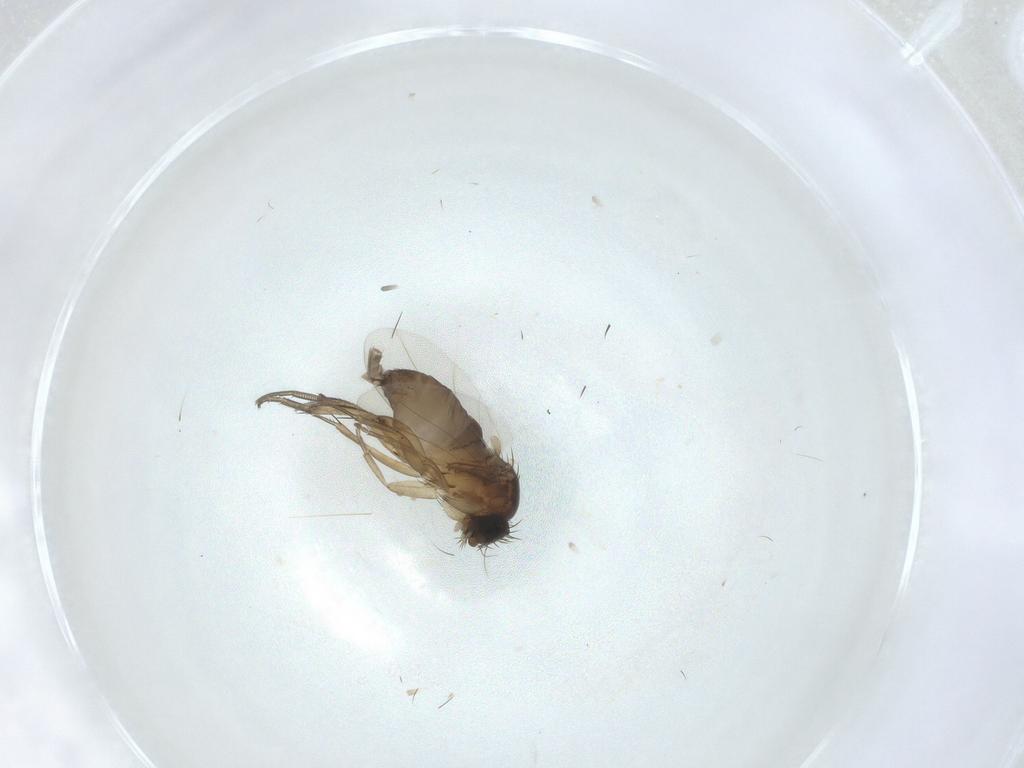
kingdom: Animalia
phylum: Arthropoda
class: Insecta
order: Diptera
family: Phoridae
